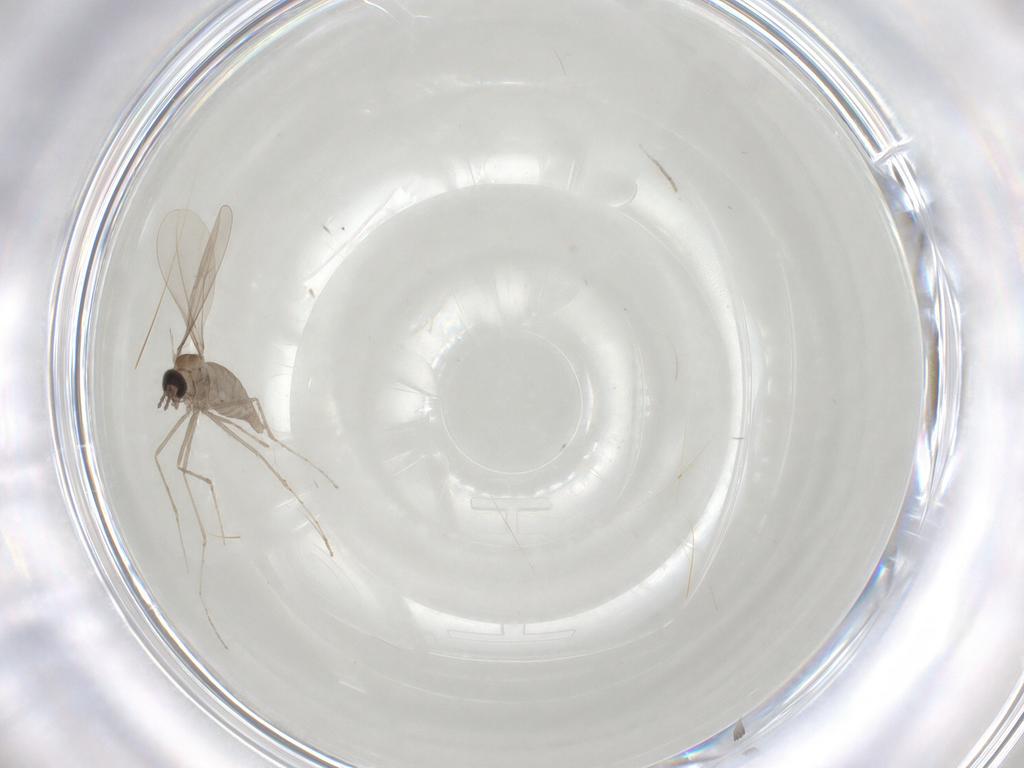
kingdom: Animalia
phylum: Arthropoda
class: Insecta
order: Diptera
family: Cecidomyiidae
